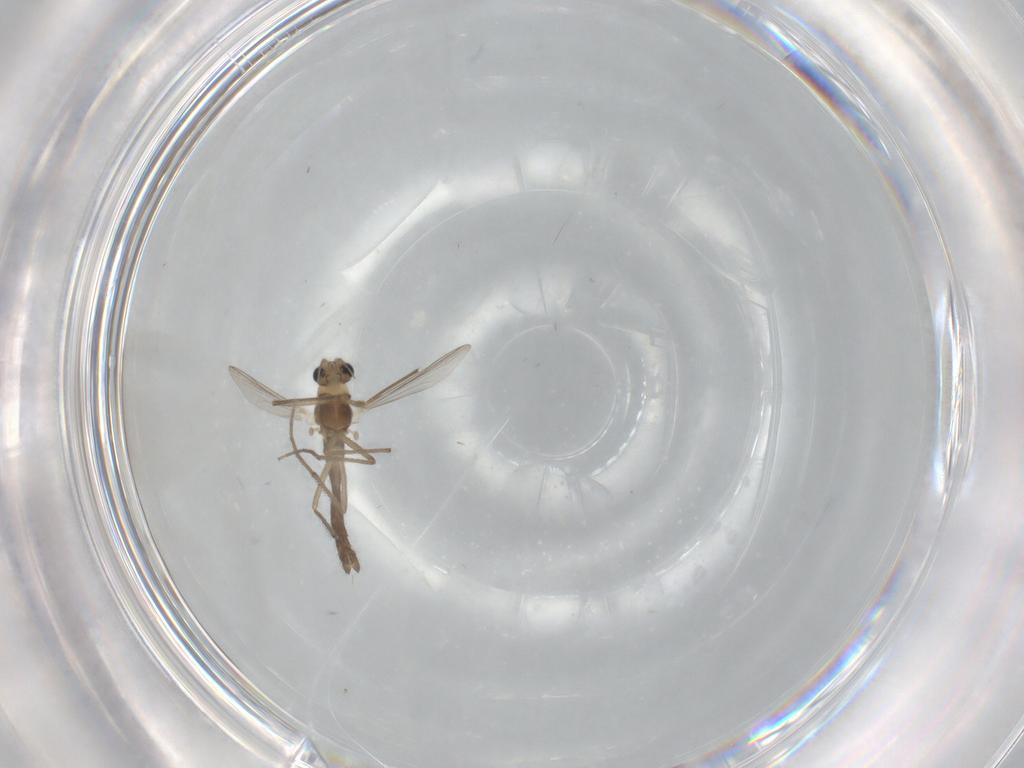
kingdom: Animalia
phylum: Arthropoda
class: Insecta
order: Diptera
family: Chironomidae
